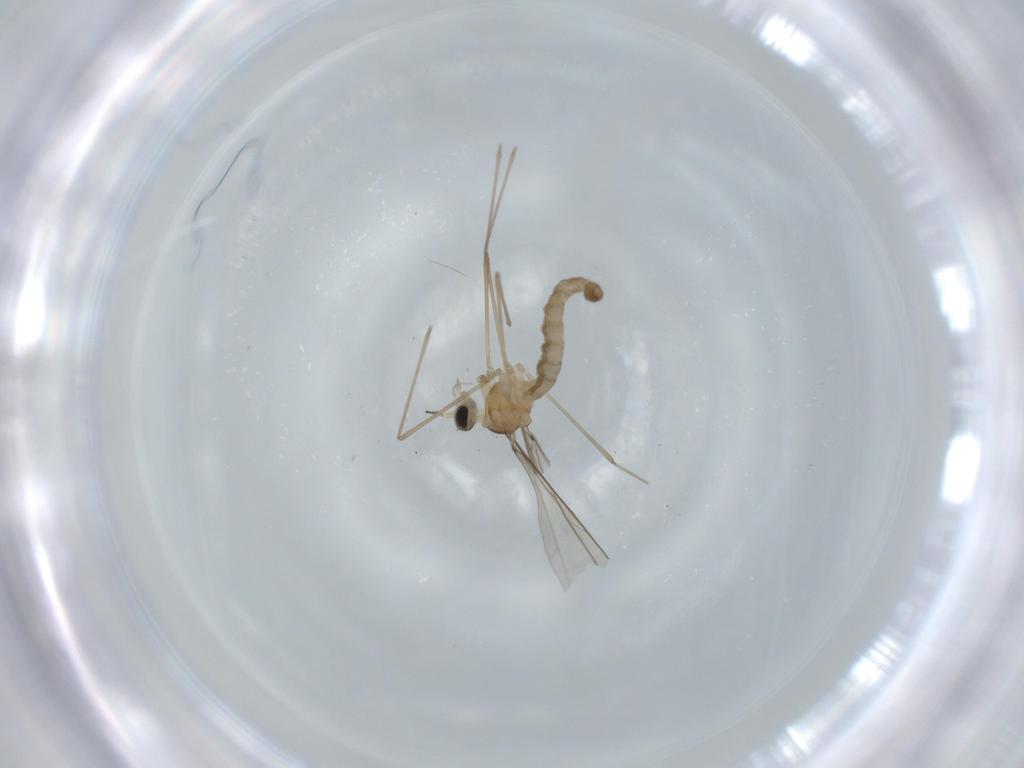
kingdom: Animalia
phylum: Arthropoda
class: Insecta
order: Diptera
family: Cecidomyiidae
